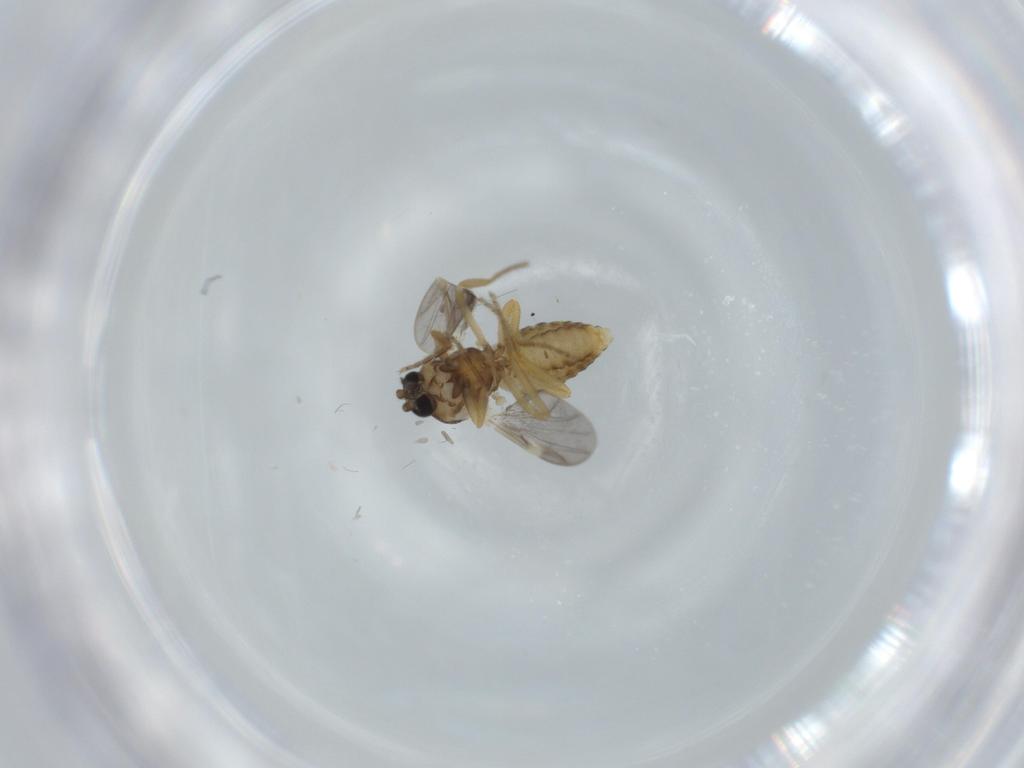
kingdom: Animalia
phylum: Arthropoda
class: Insecta
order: Diptera
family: Ceratopogonidae
